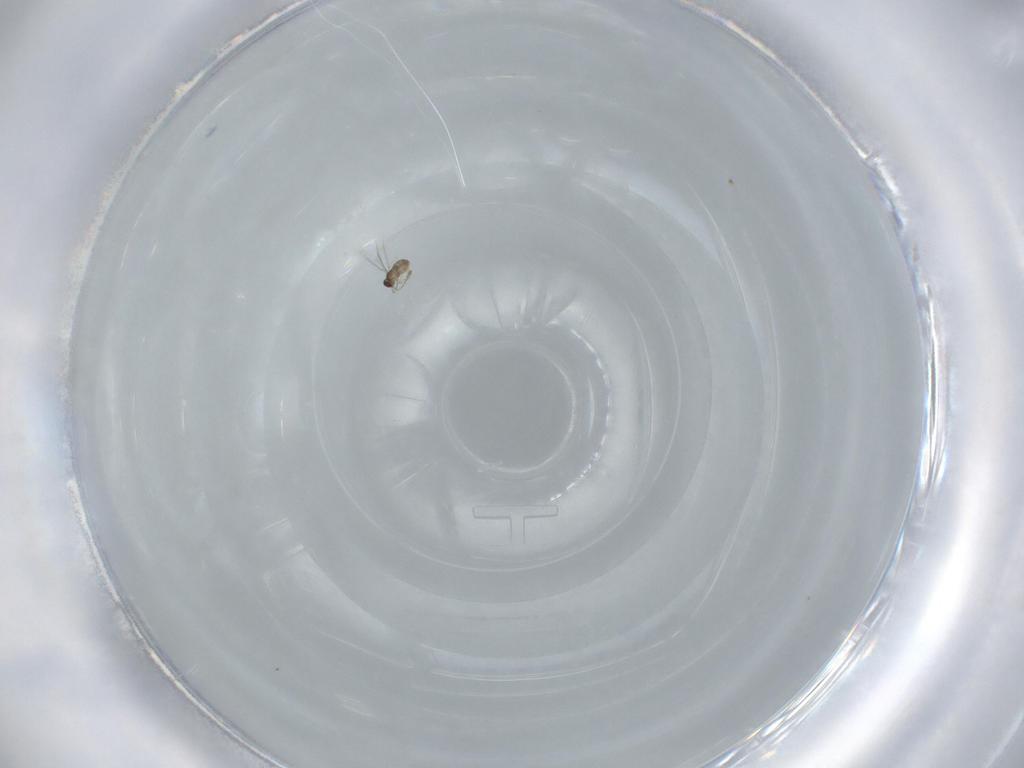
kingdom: Animalia
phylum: Arthropoda
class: Insecta
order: Hymenoptera
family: Mymaridae
